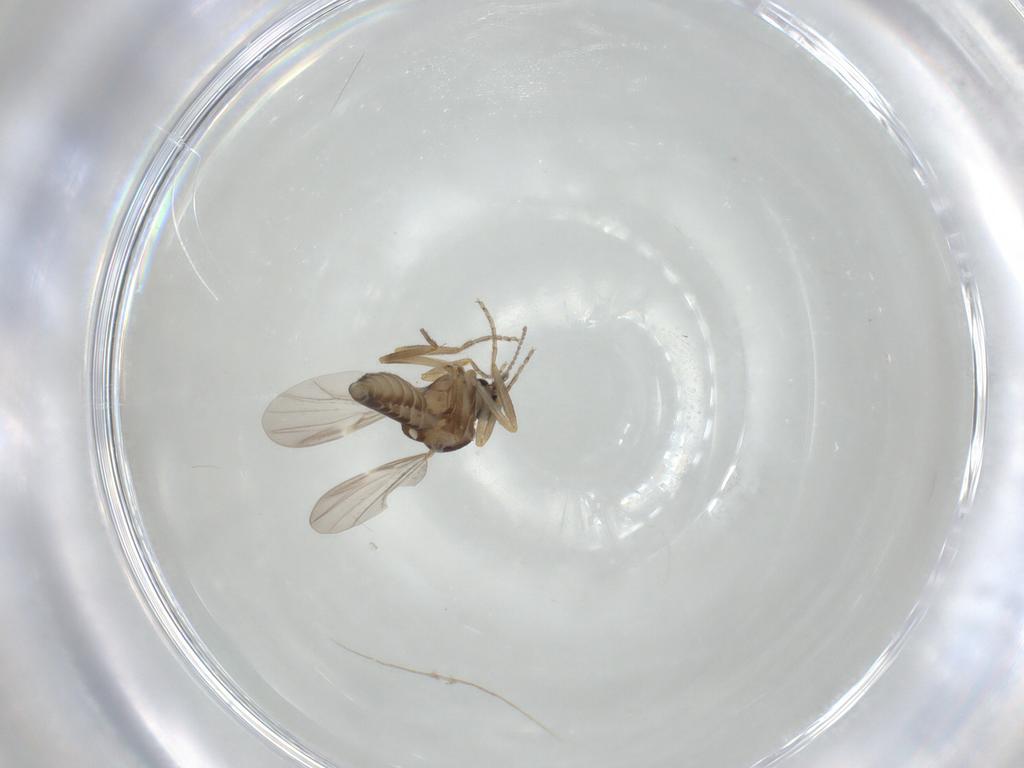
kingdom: Animalia
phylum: Arthropoda
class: Insecta
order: Diptera
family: Ceratopogonidae
